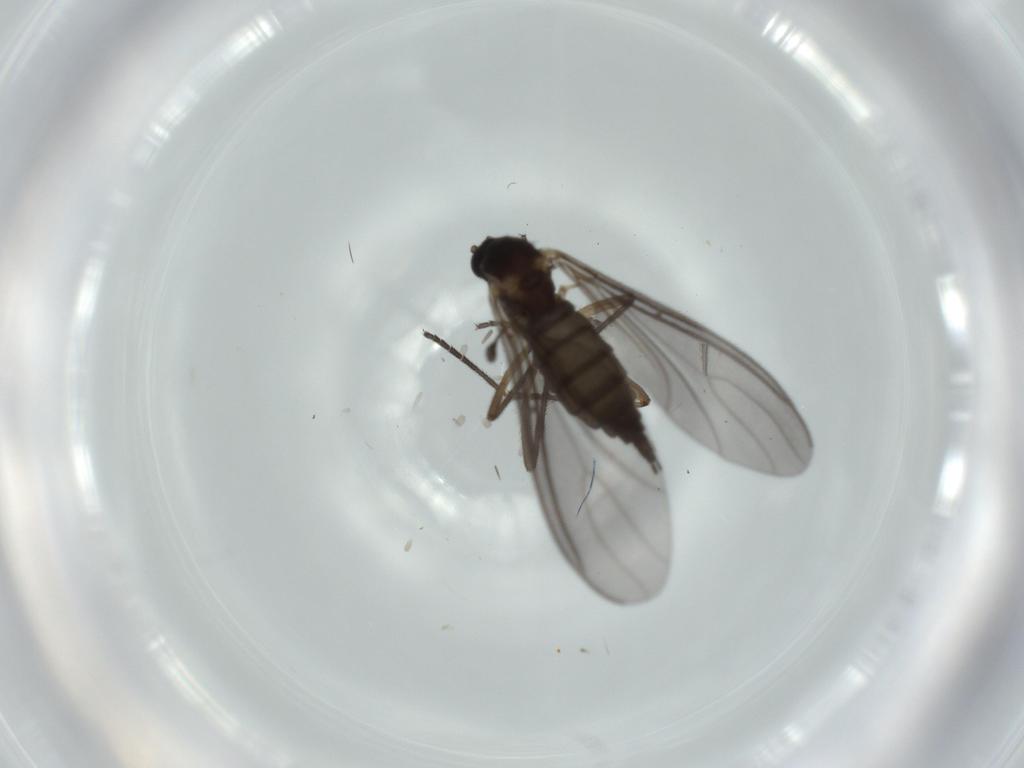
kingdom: Animalia
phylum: Arthropoda
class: Insecta
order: Diptera
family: Sciaridae
